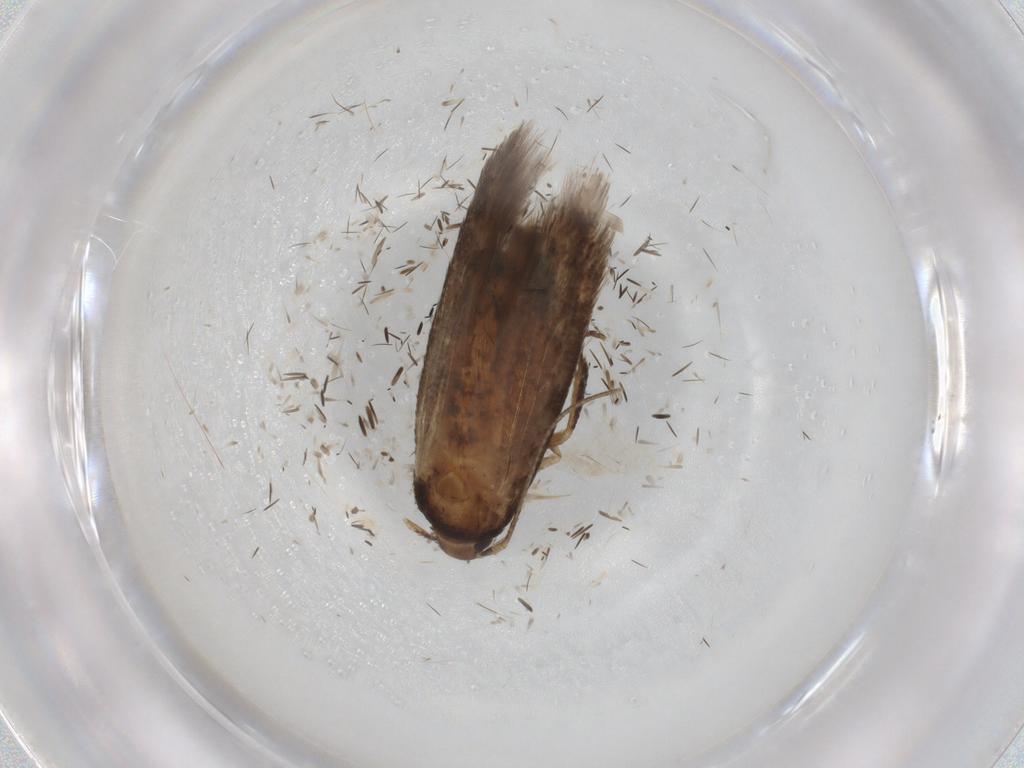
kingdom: Animalia
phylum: Arthropoda
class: Insecta
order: Lepidoptera
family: Cosmopterigidae
